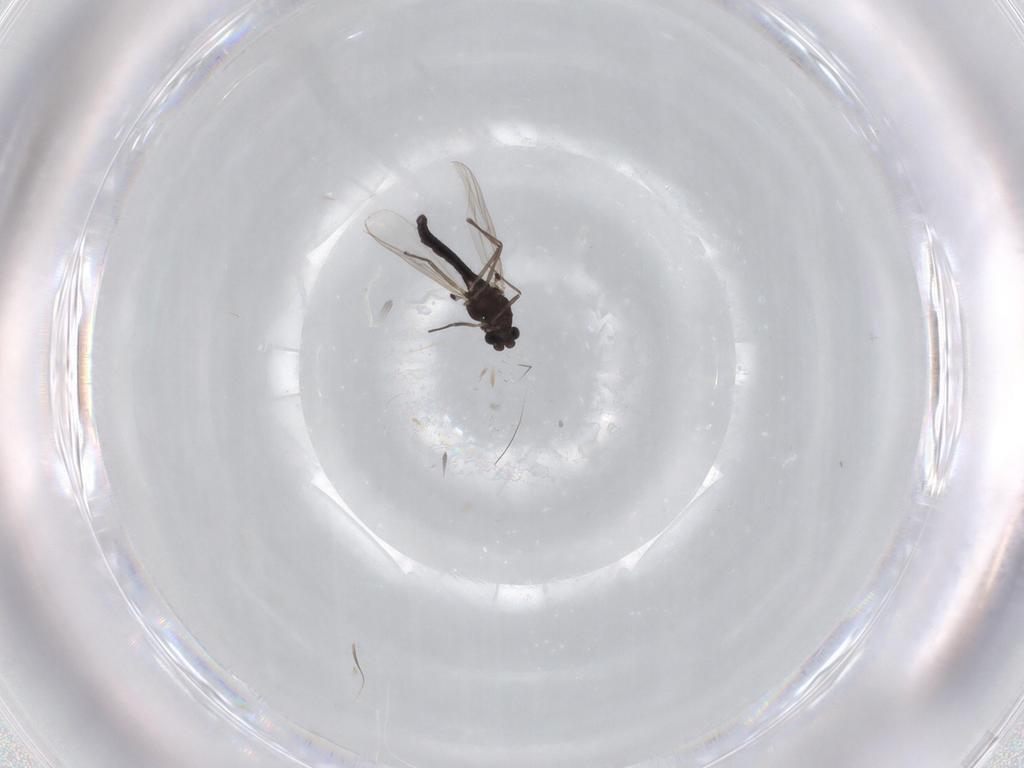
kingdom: Animalia
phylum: Arthropoda
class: Insecta
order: Diptera
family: Chironomidae
